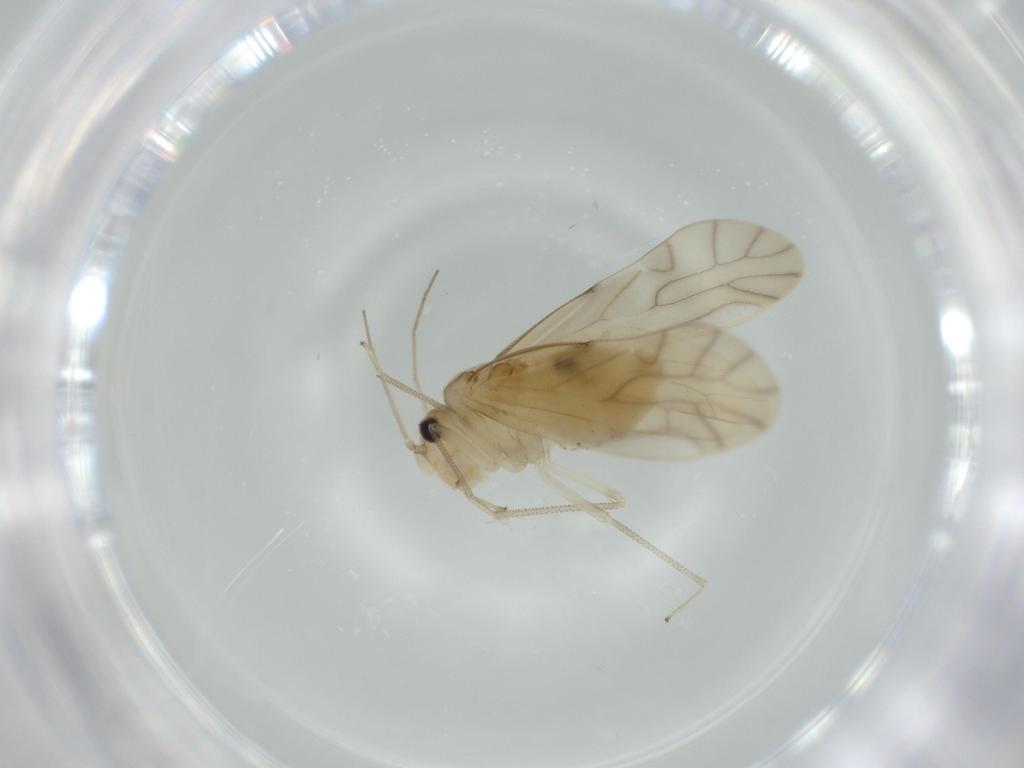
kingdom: Animalia
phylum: Arthropoda
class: Insecta
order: Psocodea
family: Caeciliusidae
